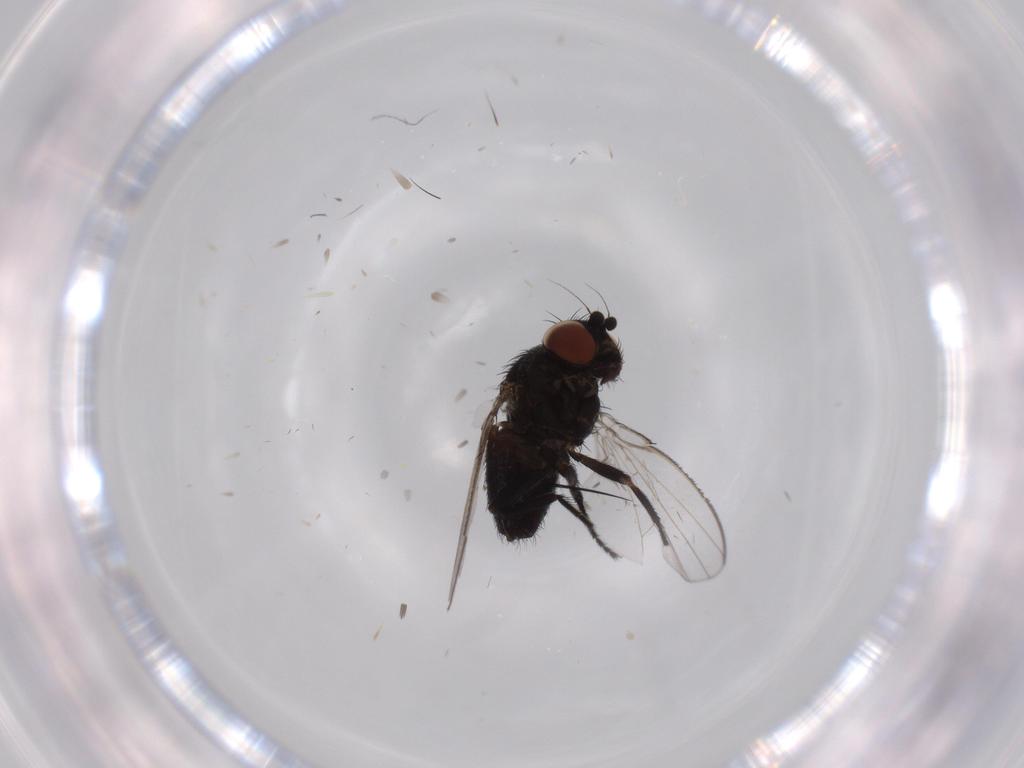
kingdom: Animalia
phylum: Arthropoda
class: Insecta
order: Diptera
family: Milichiidae
